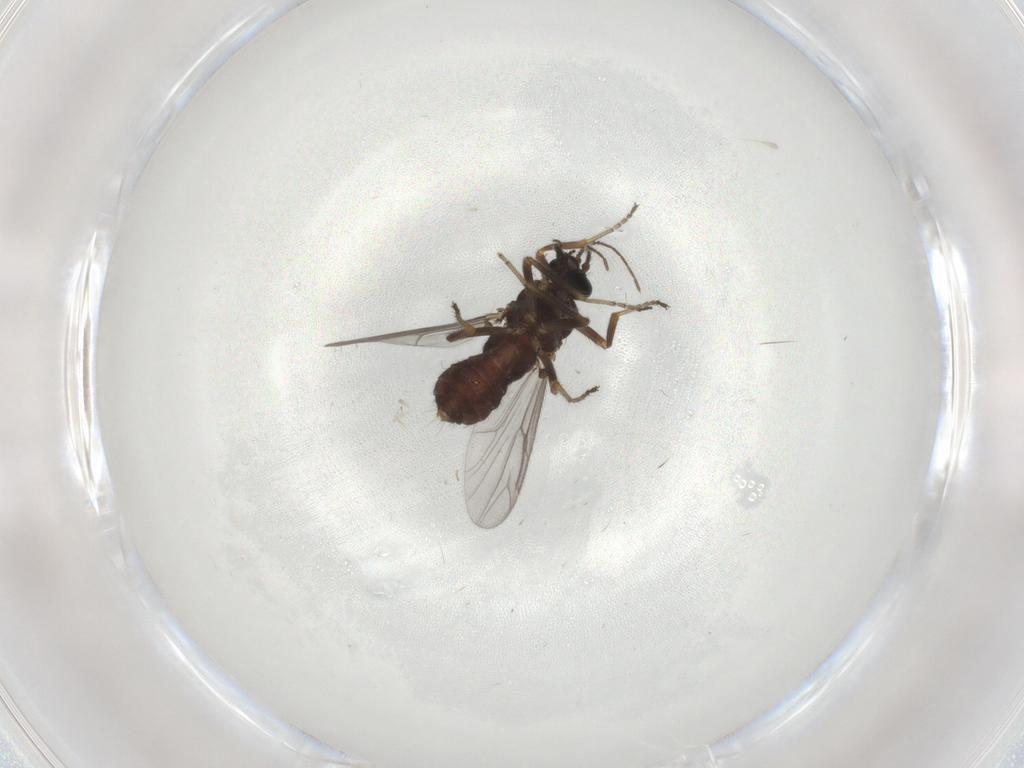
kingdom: Animalia
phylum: Arthropoda
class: Insecta
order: Diptera
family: Ceratopogonidae
